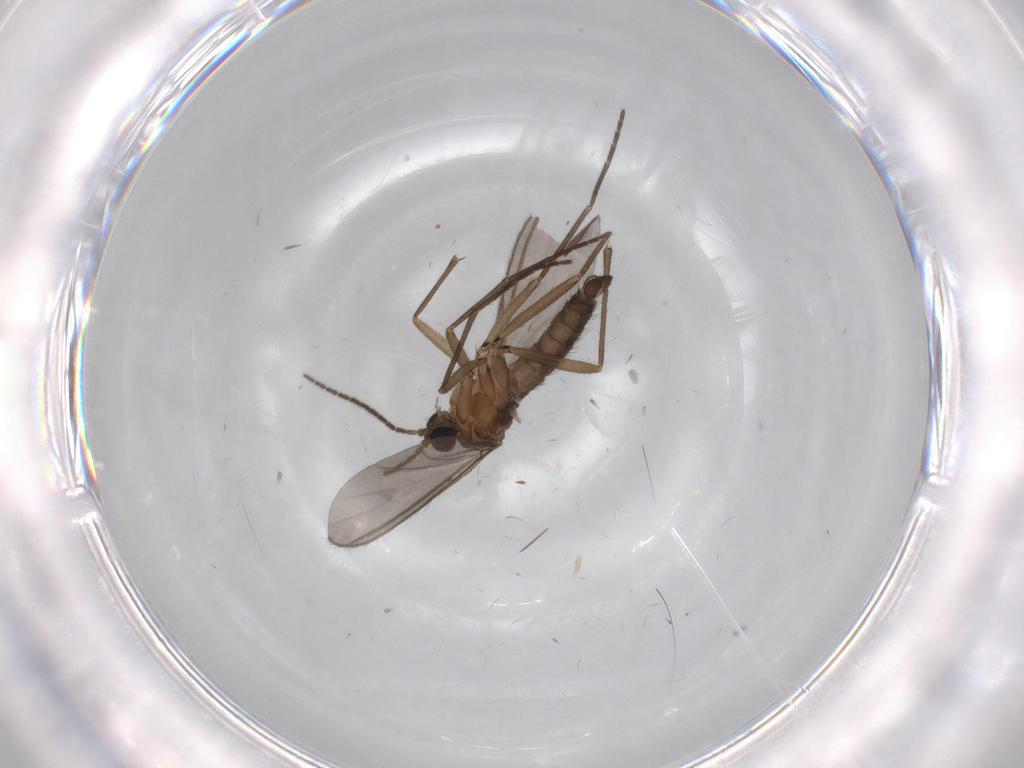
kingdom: Animalia
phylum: Arthropoda
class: Insecta
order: Diptera
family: Sciaridae
